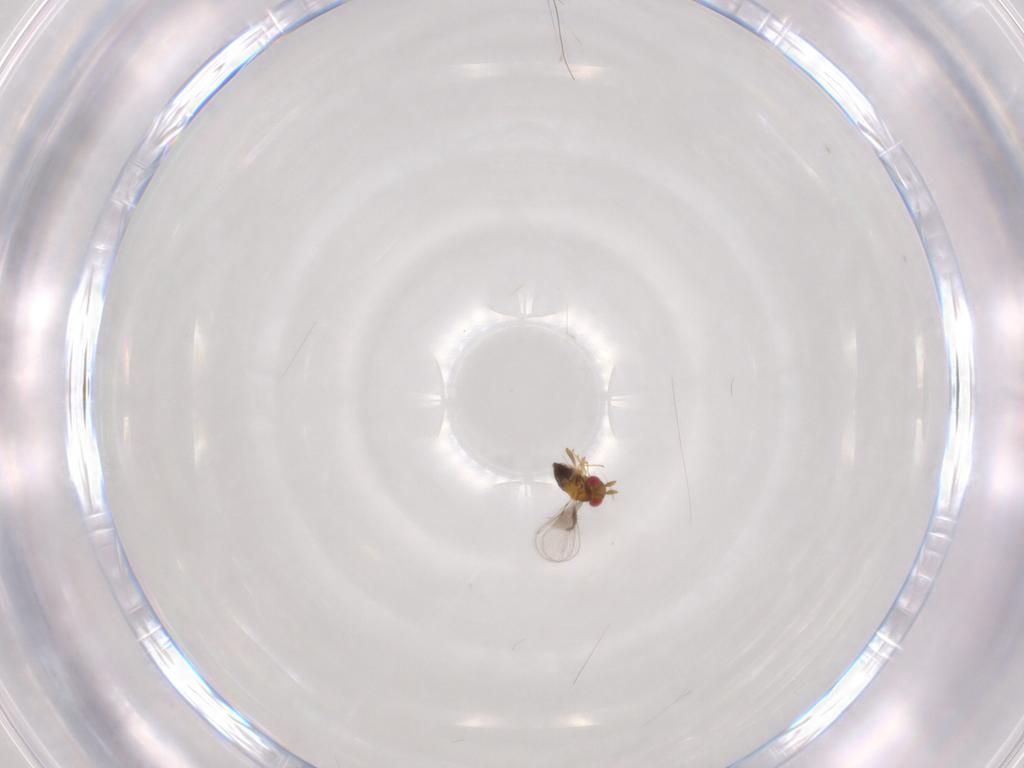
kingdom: Animalia
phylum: Arthropoda
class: Insecta
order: Hymenoptera
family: Trichogrammatidae
